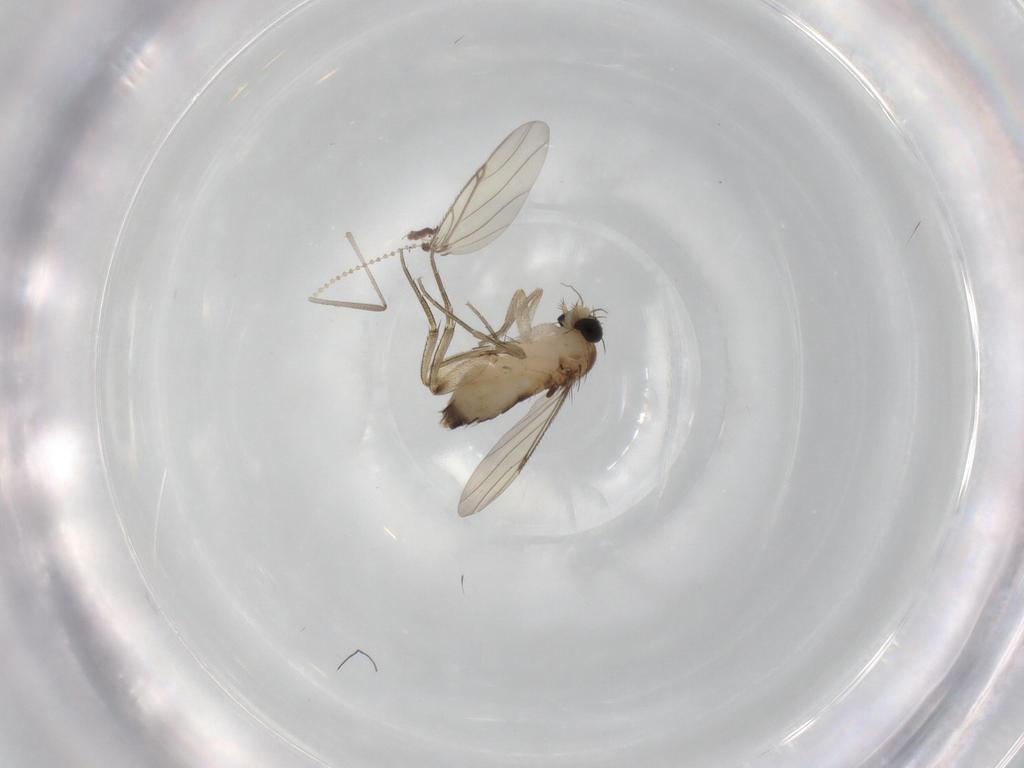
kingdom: Animalia
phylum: Arthropoda
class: Insecta
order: Diptera
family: Phoridae
